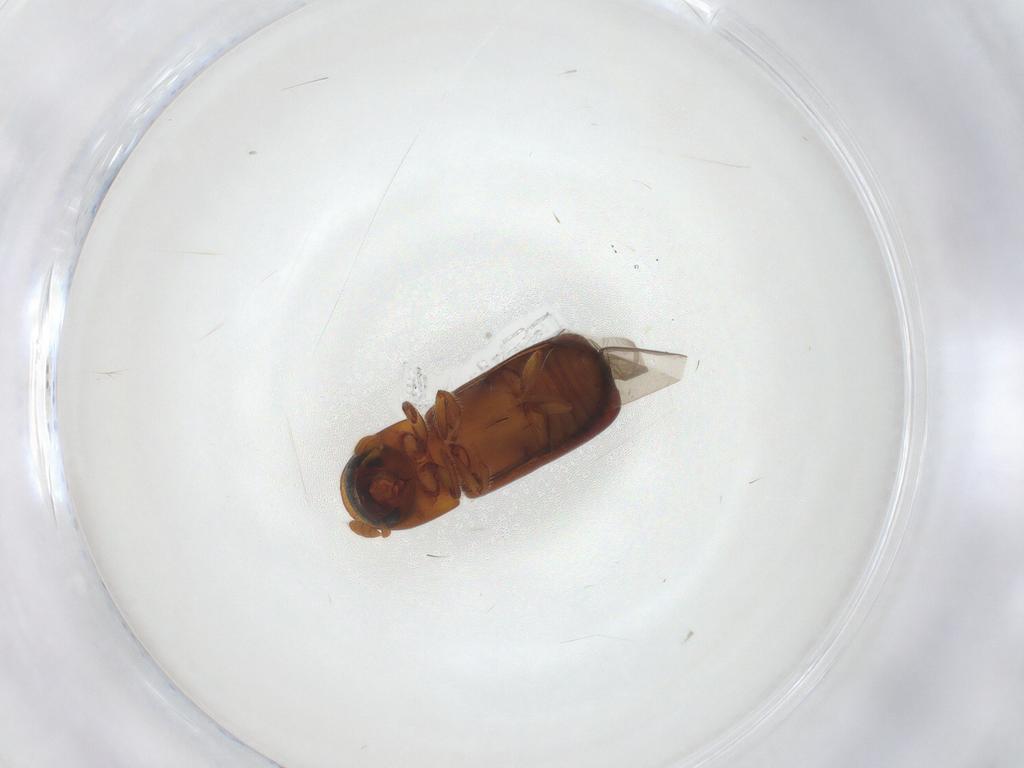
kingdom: Animalia
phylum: Arthropoda
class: Insecta
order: Coleoptera
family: Curculionidae
